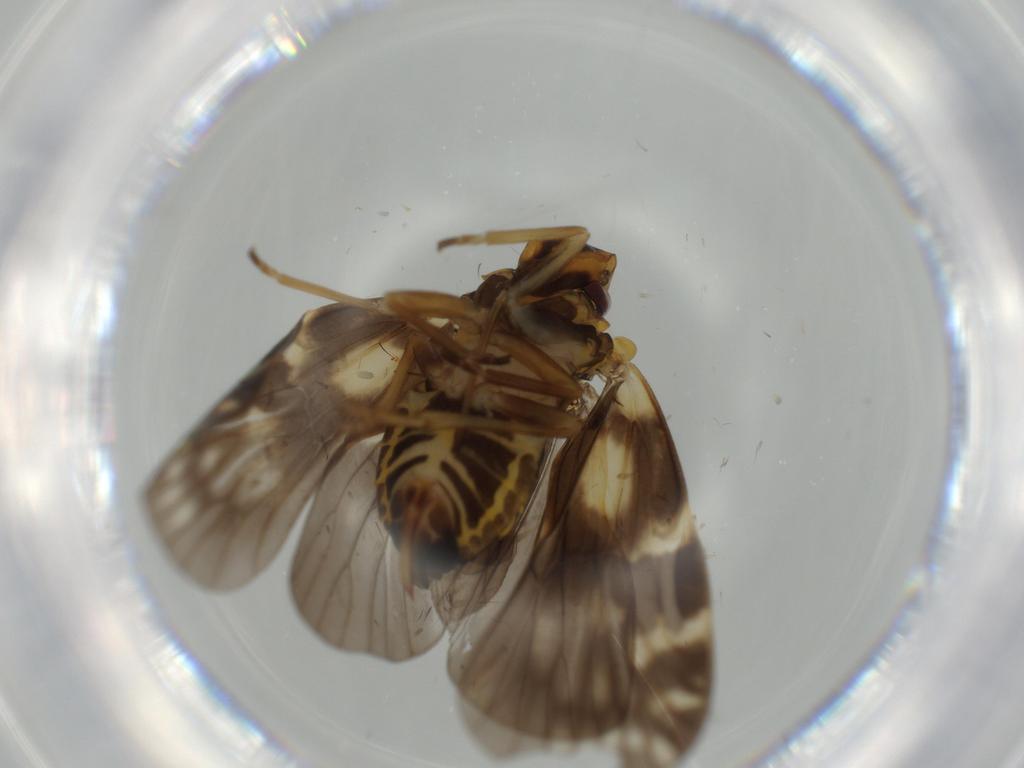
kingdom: Animalia
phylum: Arthropoda
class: Insecta
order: Hemiptera
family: Cixiidae
